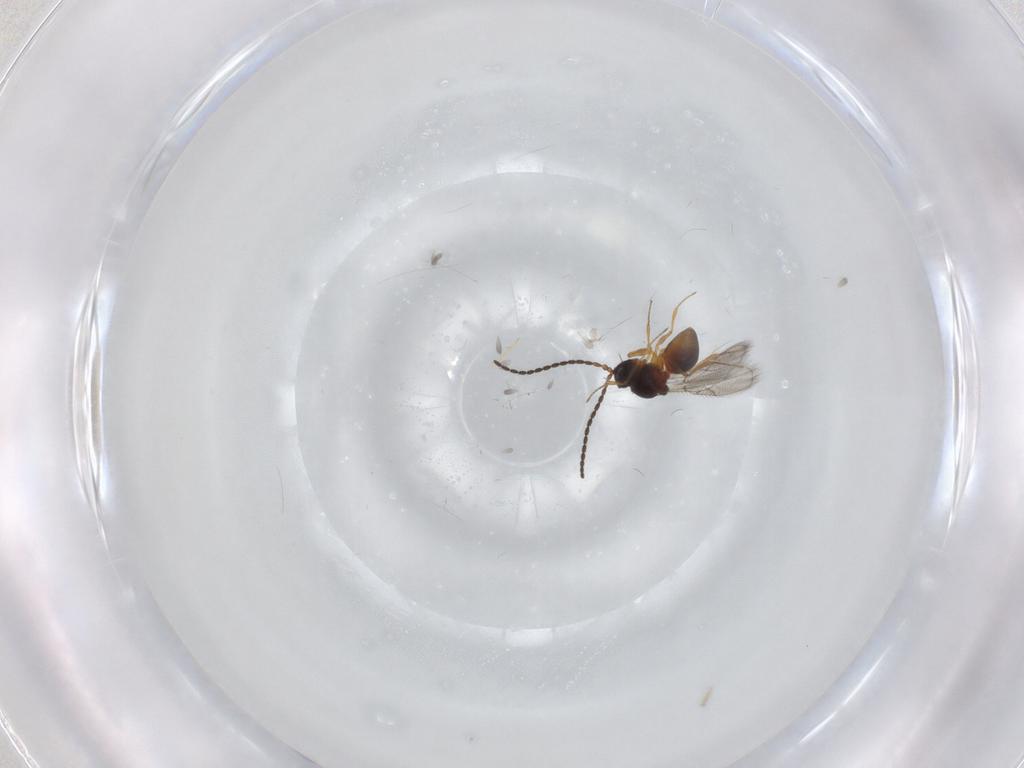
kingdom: Animalia
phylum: Arthropoda
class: Insecta
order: Hymenoptera
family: Figitidae
